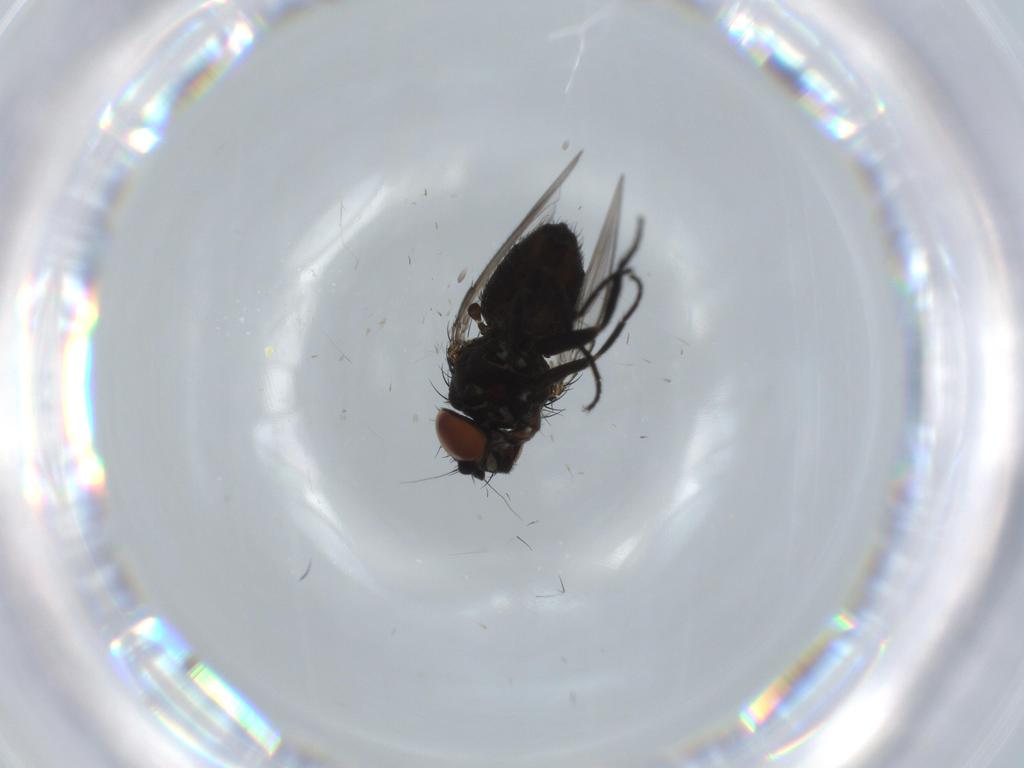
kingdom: Animalia
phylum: Arthropoda
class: Insecta
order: Diptera
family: Milichiidae
